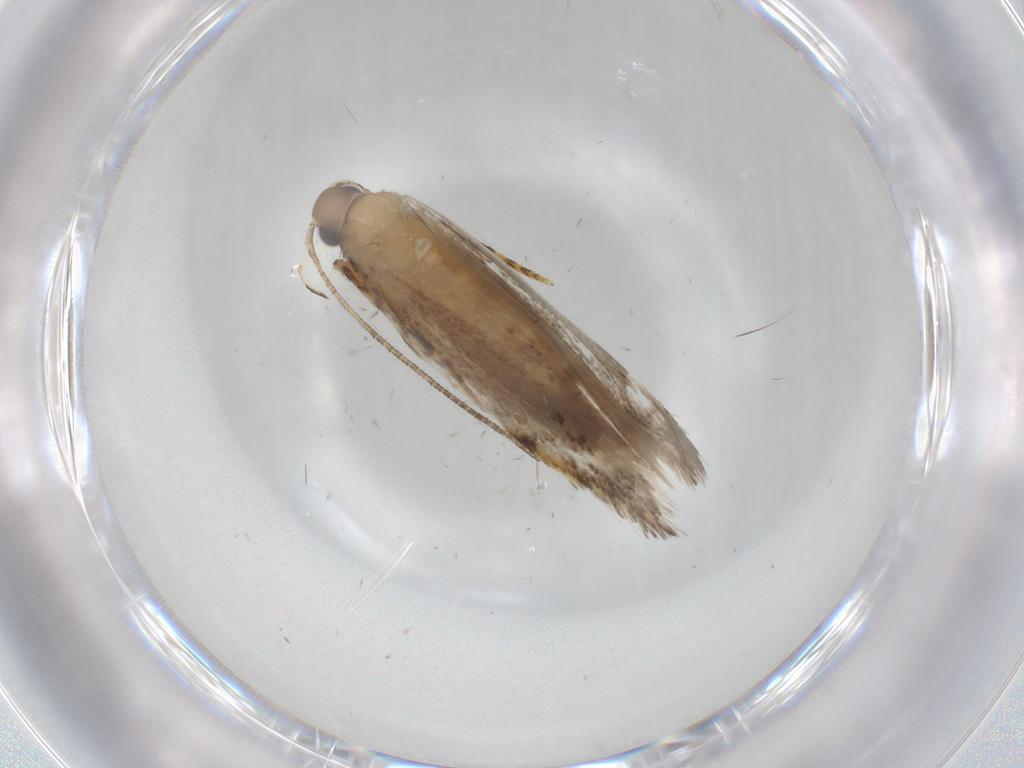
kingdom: Animalia
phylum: Arthropoda
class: Insecta
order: Lepidoptera
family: Autostichidae
